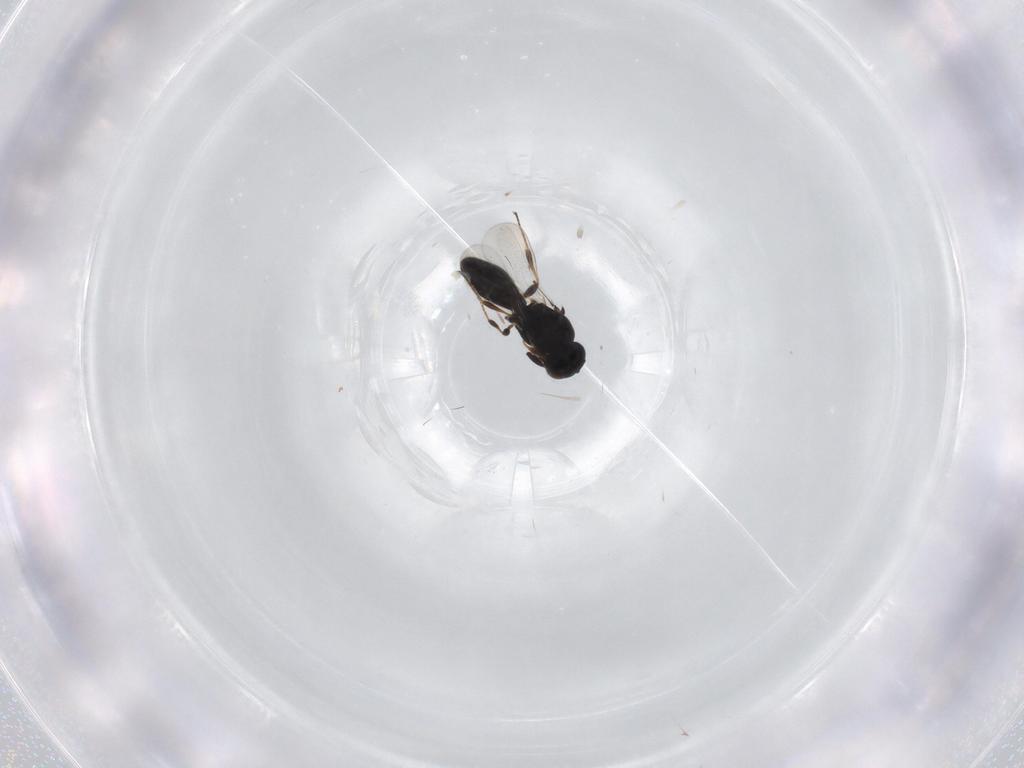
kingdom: Animalia
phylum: Arthropoda
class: Insecta
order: Hymenoptera
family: Platygastridae
